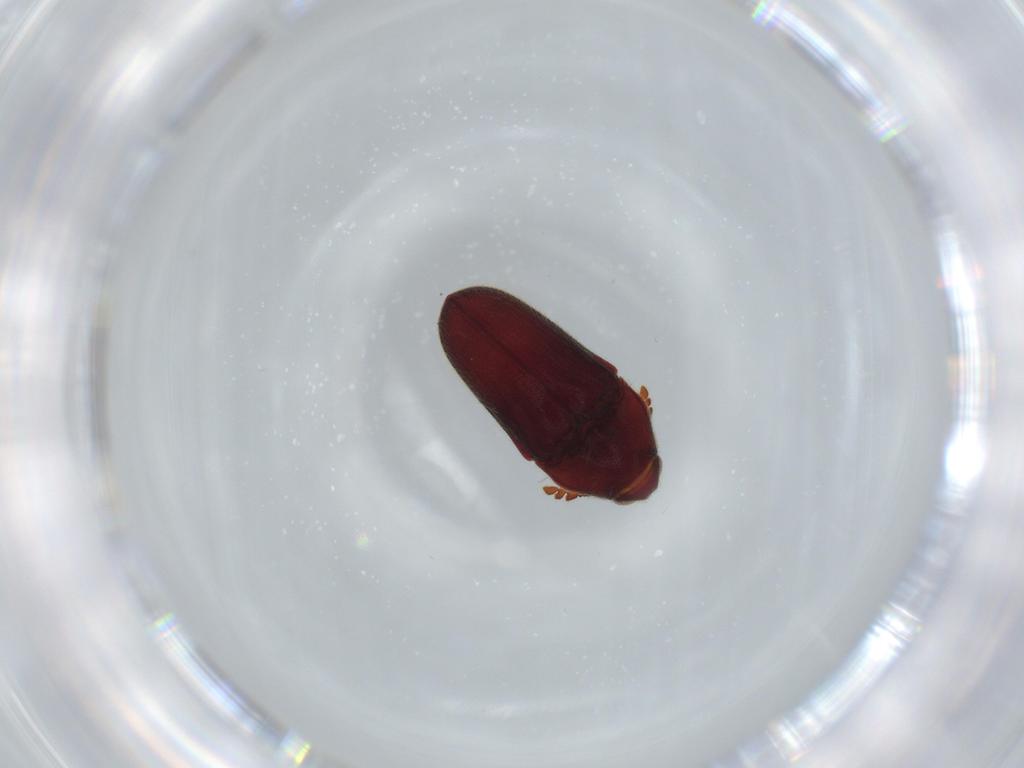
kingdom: Animalia
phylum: Arthropoda
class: Insecta
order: Coleoptera
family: Throscidae
